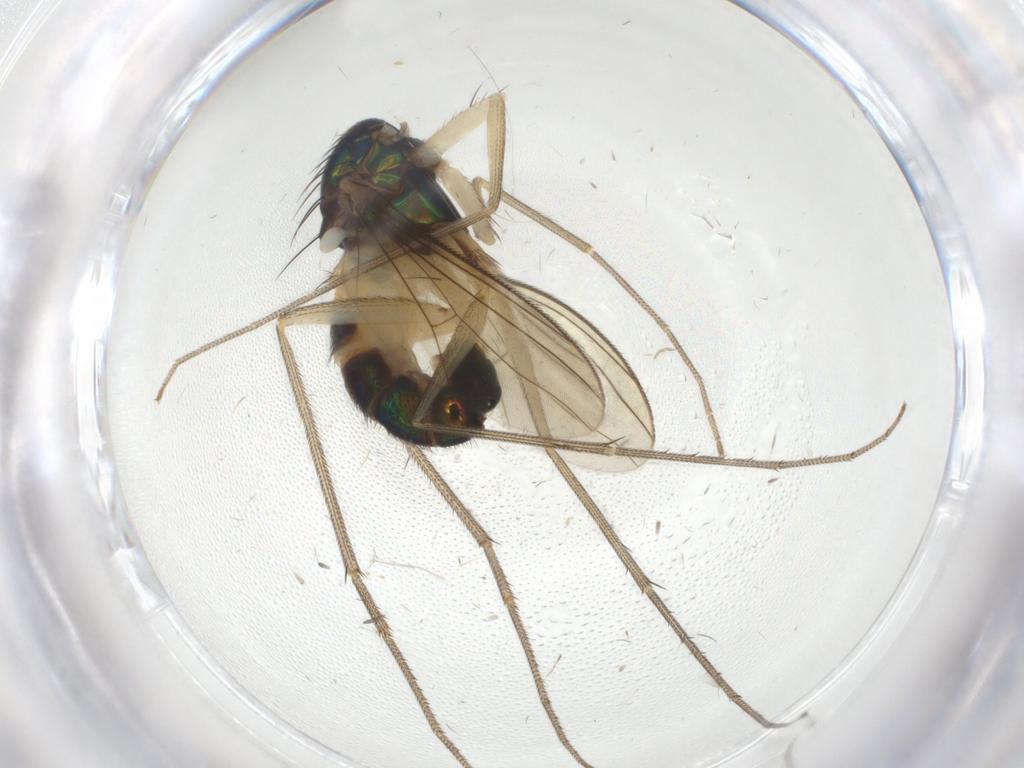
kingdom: Animalia
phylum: Arthropoda
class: Insecta
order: Diptera
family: Dolichopodidae
